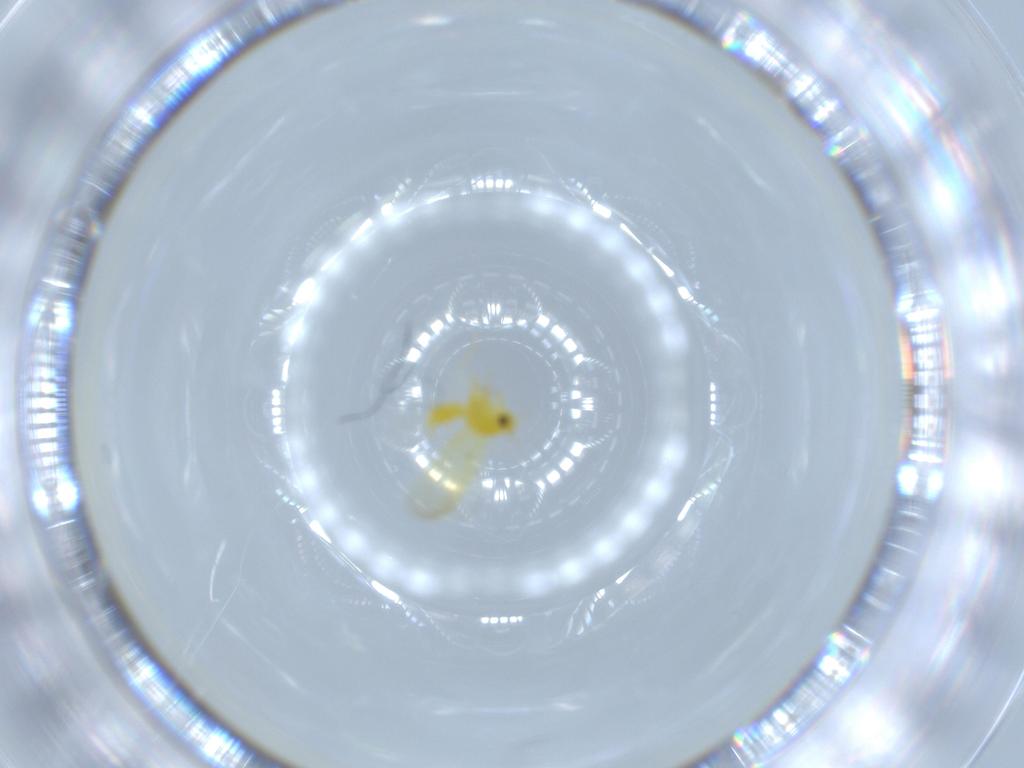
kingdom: Animalia
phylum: Arthropoda
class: Insecta
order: Hemiptera
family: Aleyrodidae
